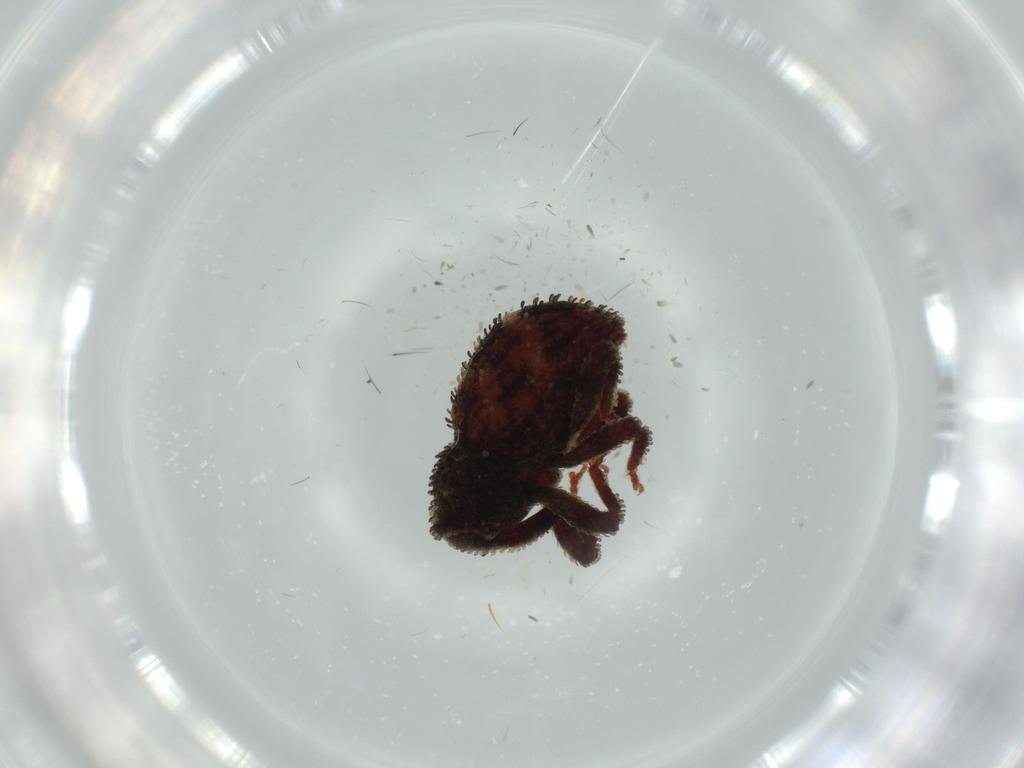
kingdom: Animalia
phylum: Arthropoda
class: Insecta
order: Coleoptera
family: Curculionidae
